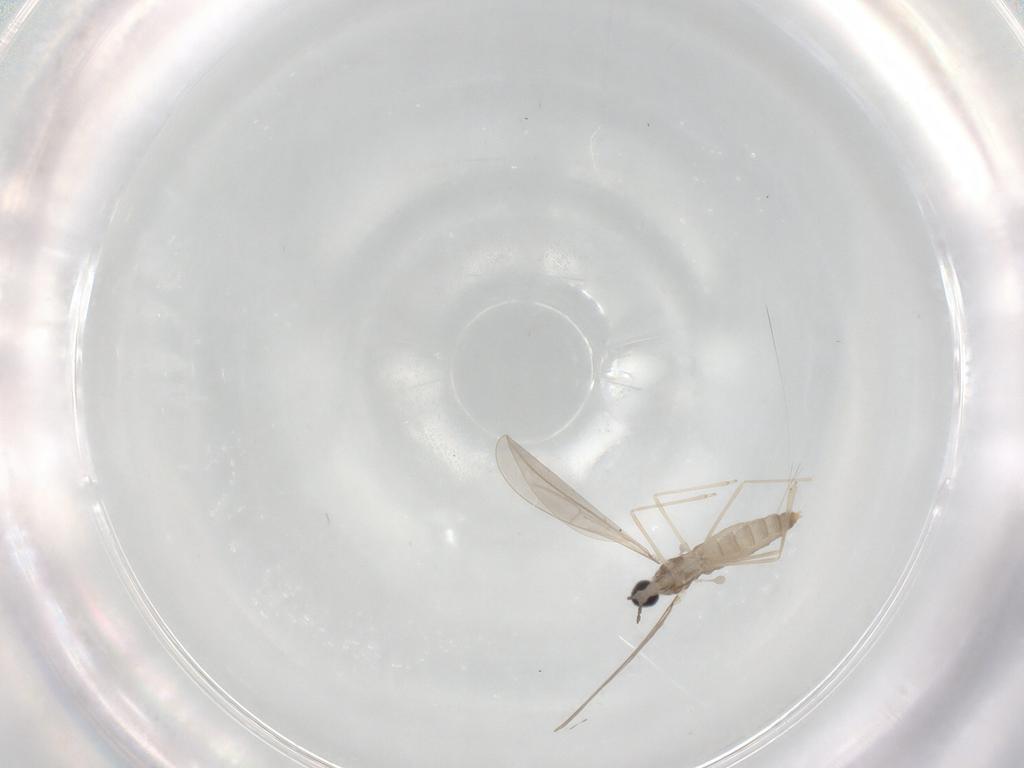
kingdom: Animalia
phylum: Arthropoda
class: Insecta
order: Diptera
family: Cecidomyiidae
